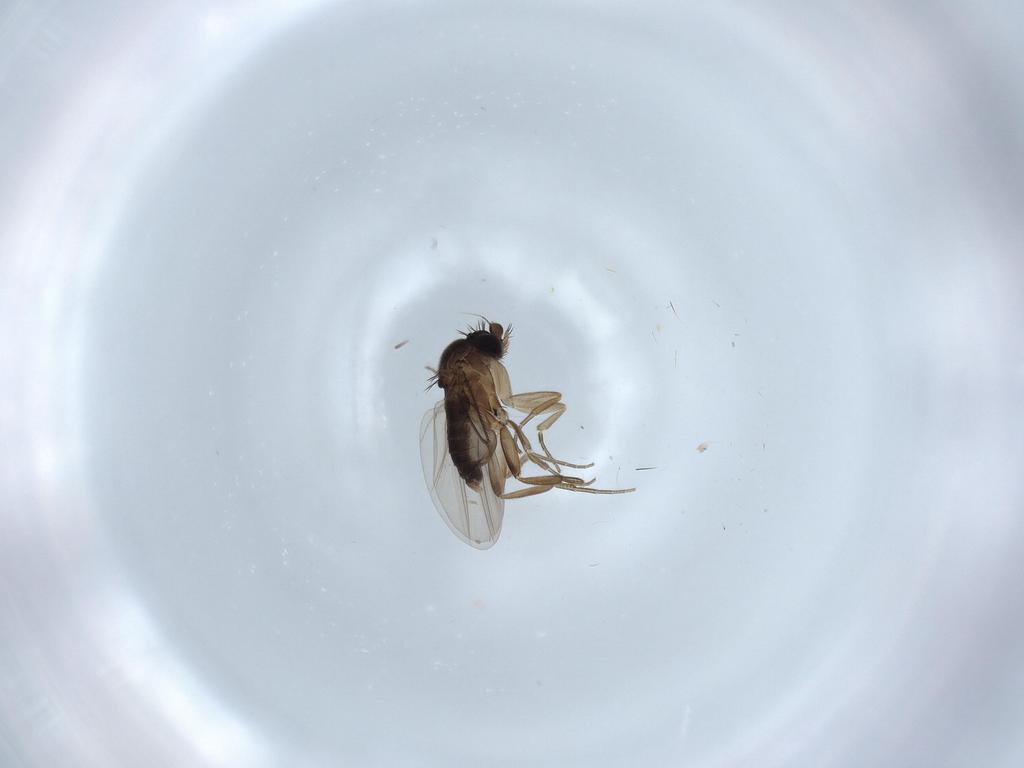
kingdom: Animalia
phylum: Arthropoda
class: Insecta
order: Diptera
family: Phoridae
